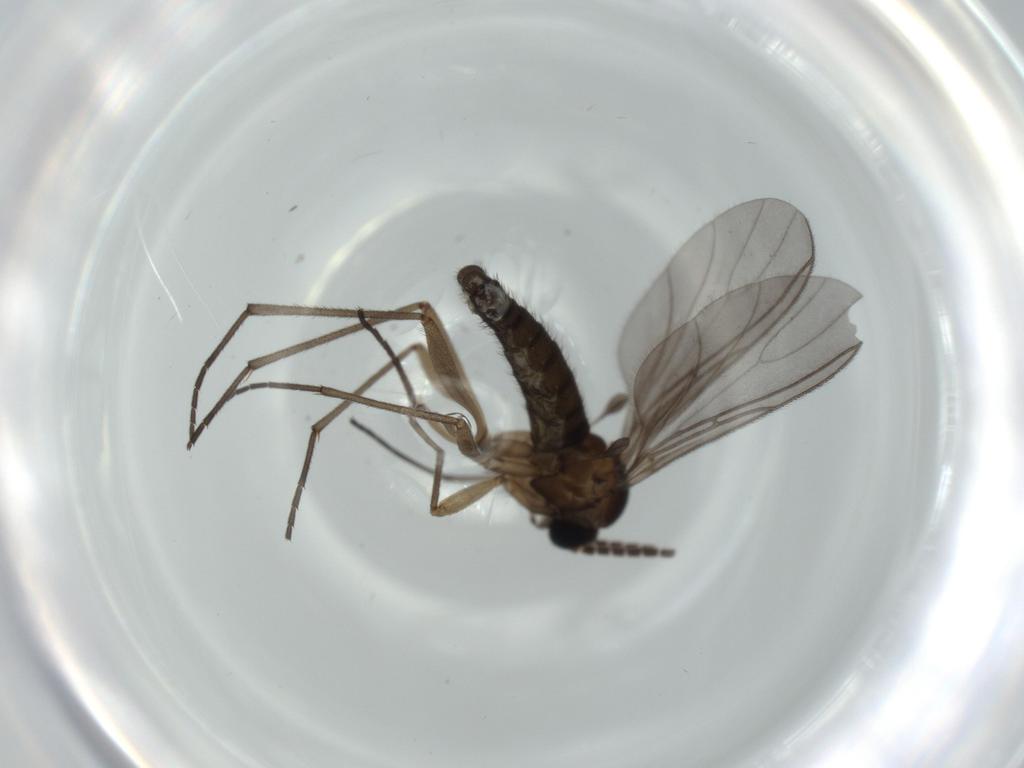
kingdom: Animalia
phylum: Arthropoda
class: Insecta
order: Diptera
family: Sciaridae
